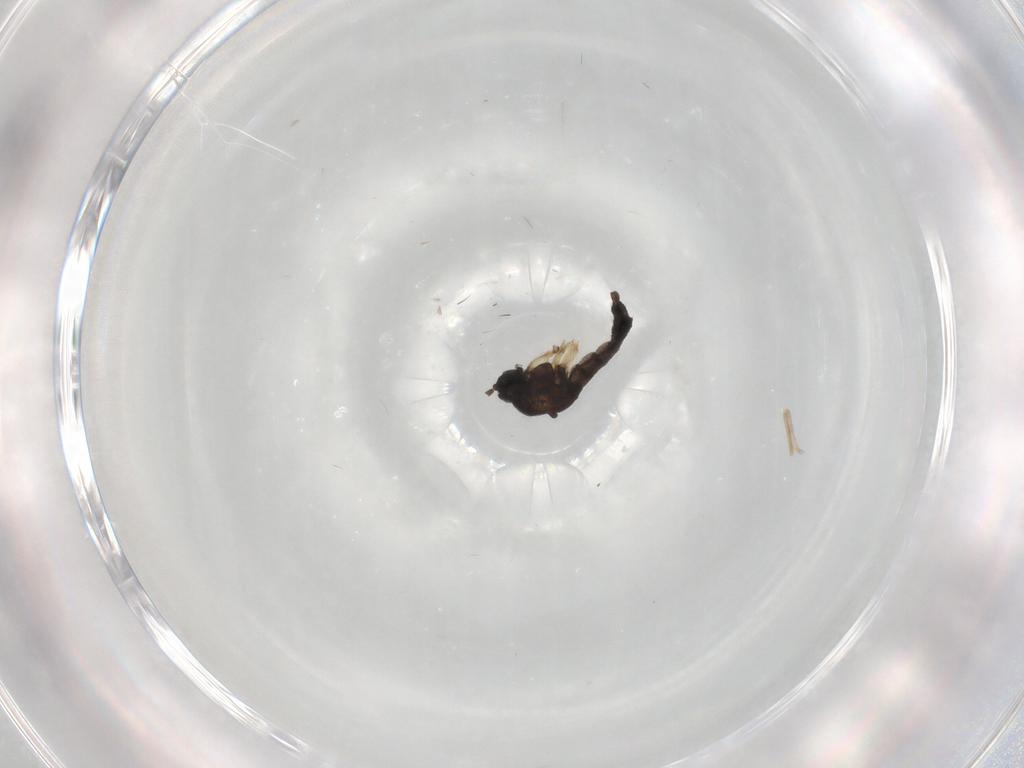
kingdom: Animalia
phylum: Arthropoda
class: Insecta
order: Diptera
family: Sciaridae
